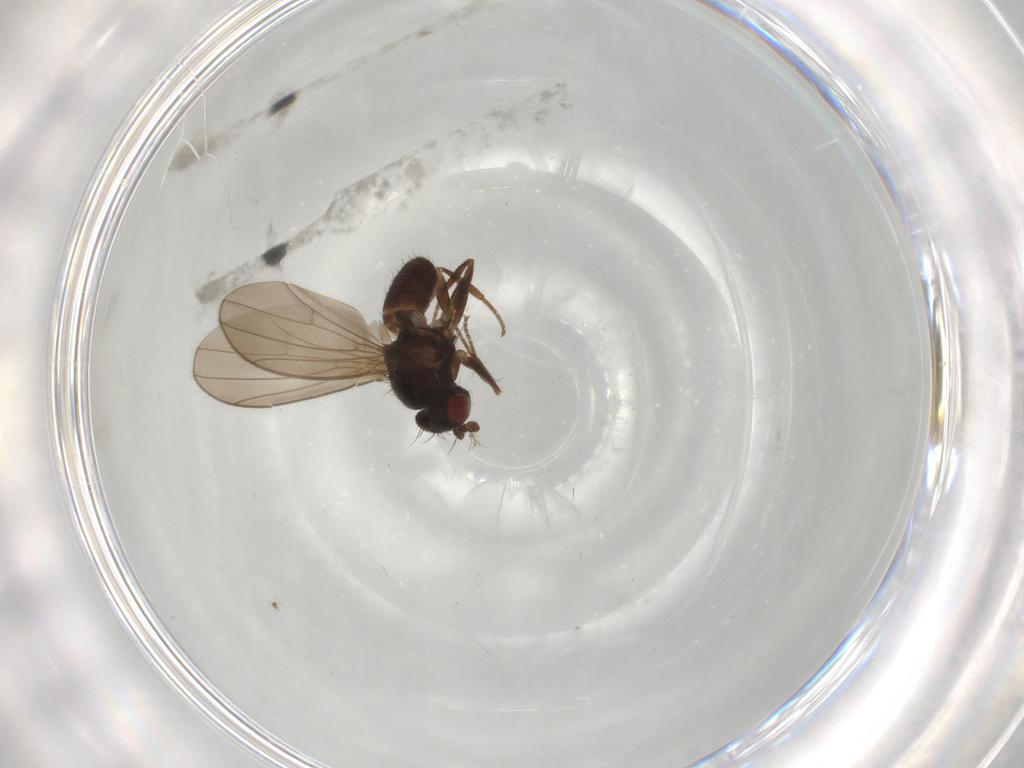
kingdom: Animalia
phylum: Arthropoda
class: Insecta
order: Diptera
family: Drosophilidae
